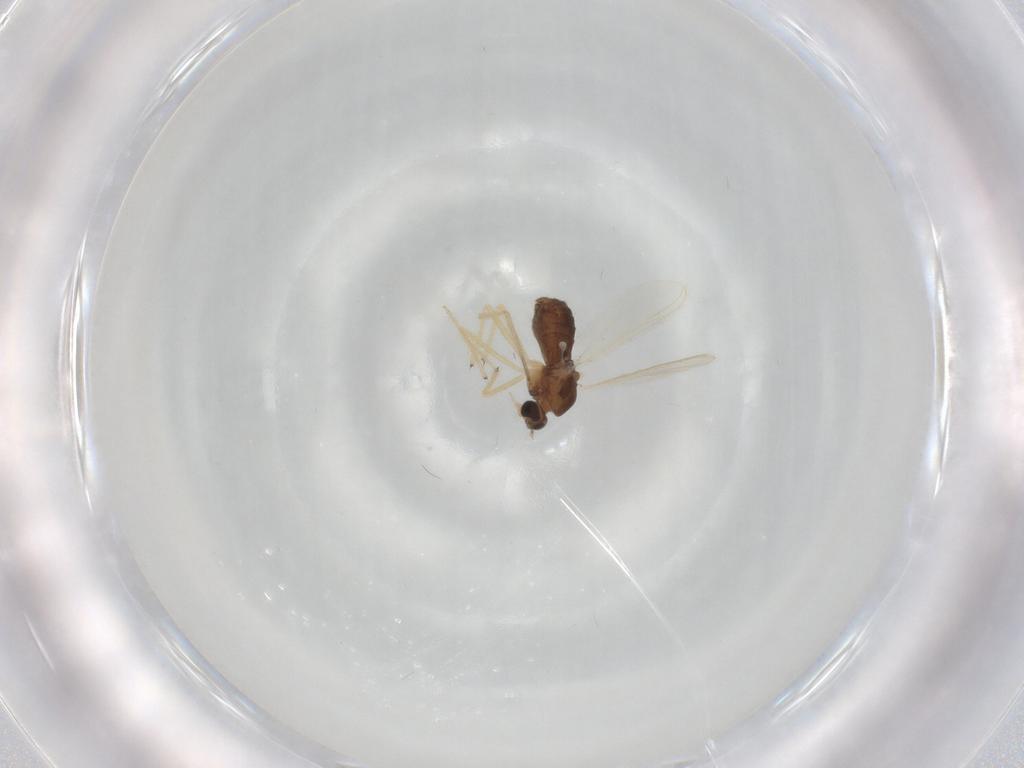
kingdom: Animalia
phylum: Arthropoda
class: Insecta
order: Diptera
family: Chironomidae
